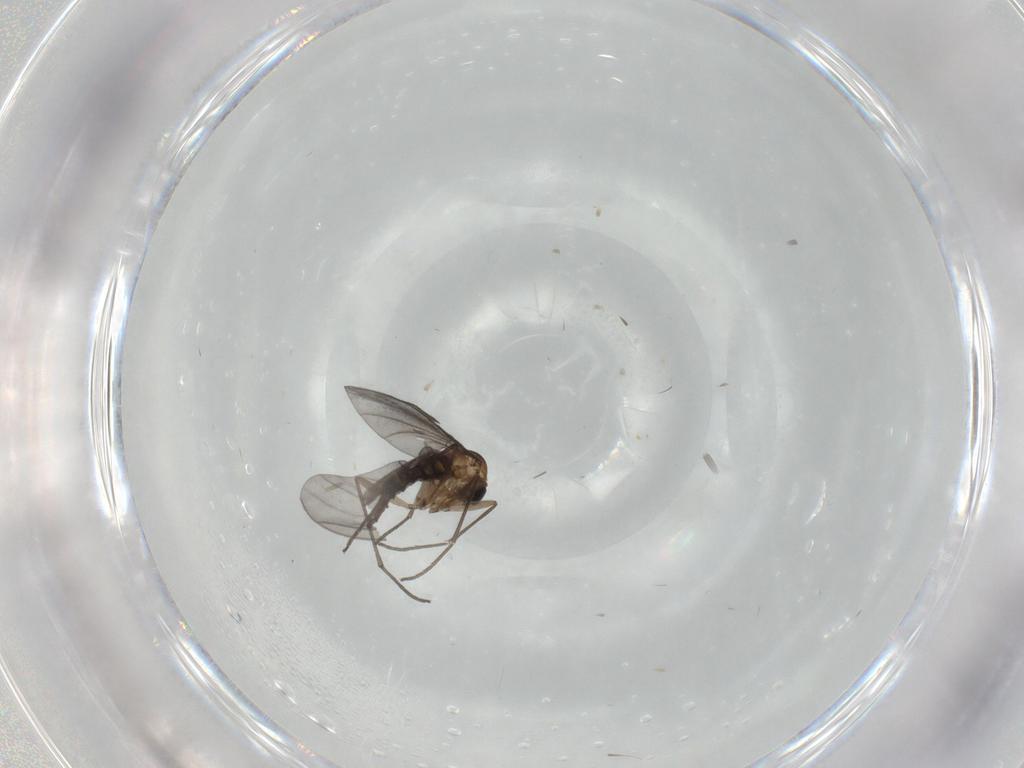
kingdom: Animalia
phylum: Arthropoda
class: Insecta
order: Diptera
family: Sciaridae
